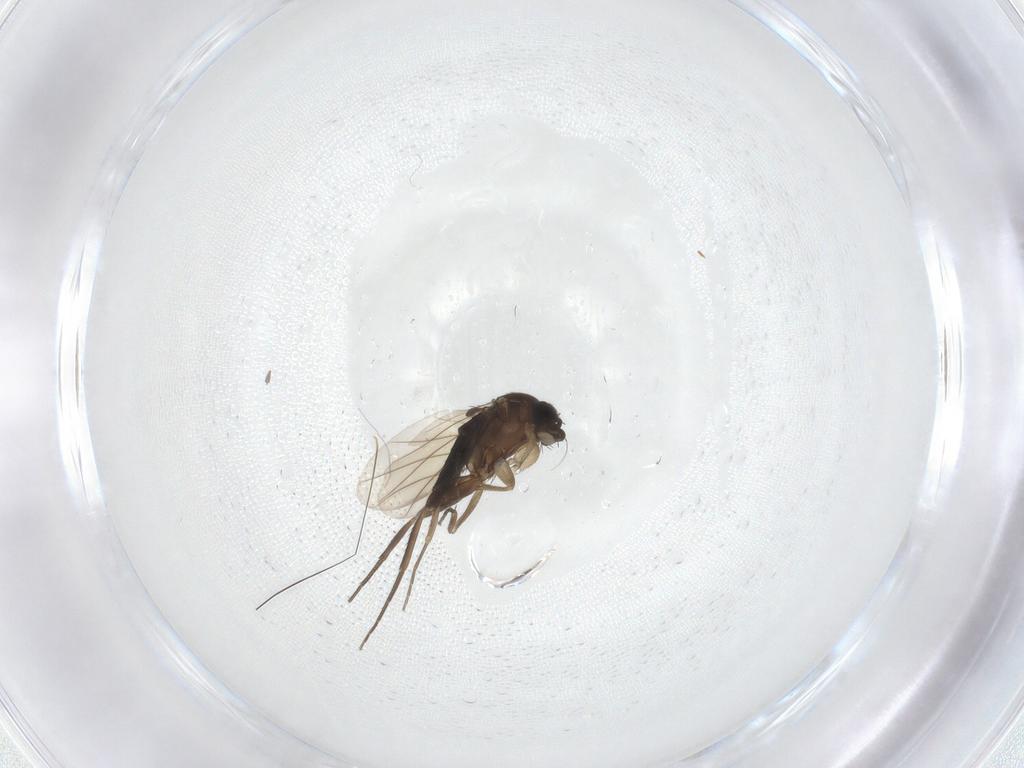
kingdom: Animalia
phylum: Arthropoda
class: Insecta
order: Diptera
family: Phoridae
